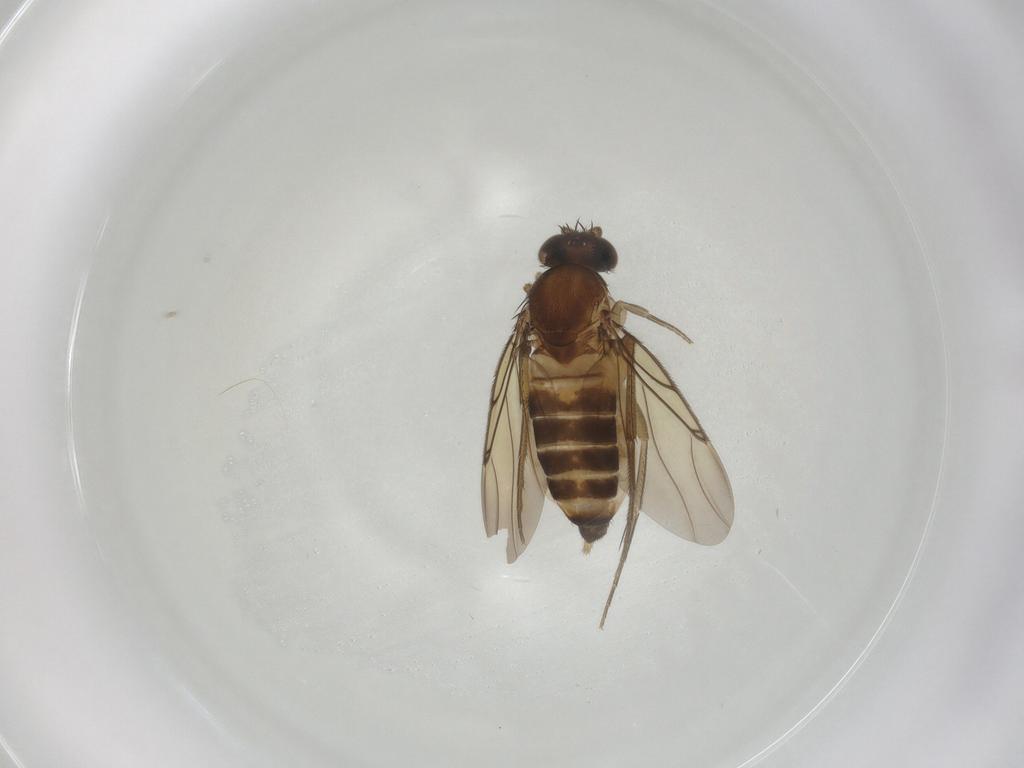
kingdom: Animalia
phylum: Arthropoda
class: Insecta
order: Diptera
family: Phoridae
